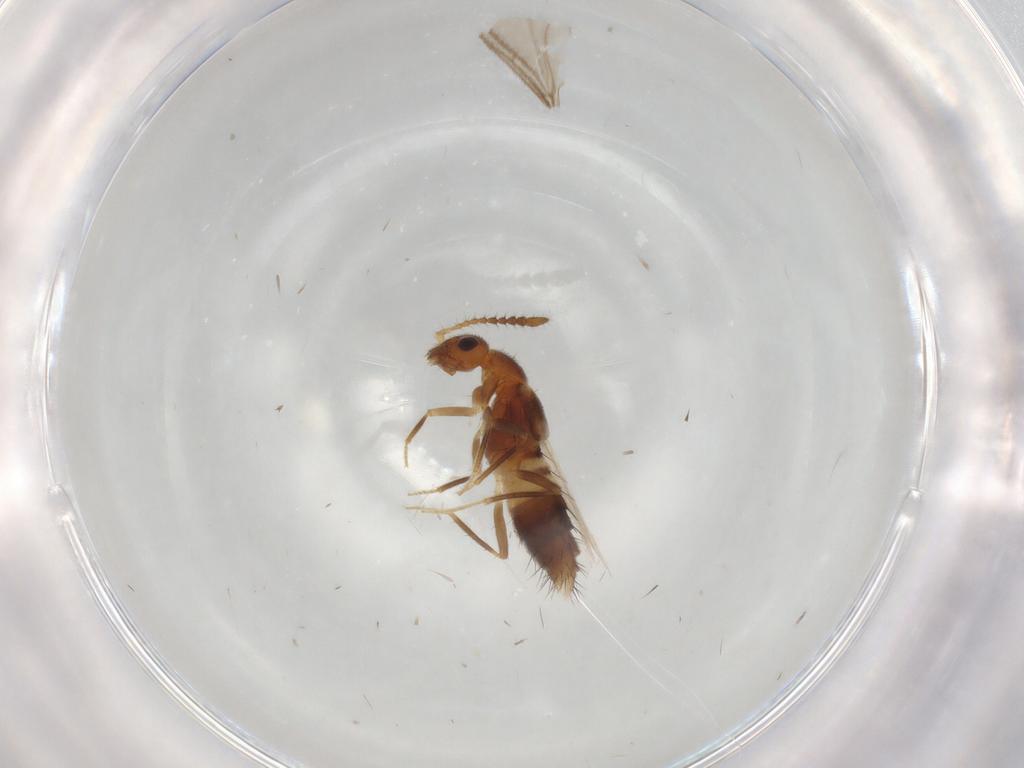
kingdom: Animalia
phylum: Arthropoda
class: Insecta
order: Coleoptera
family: Staphylinidae
